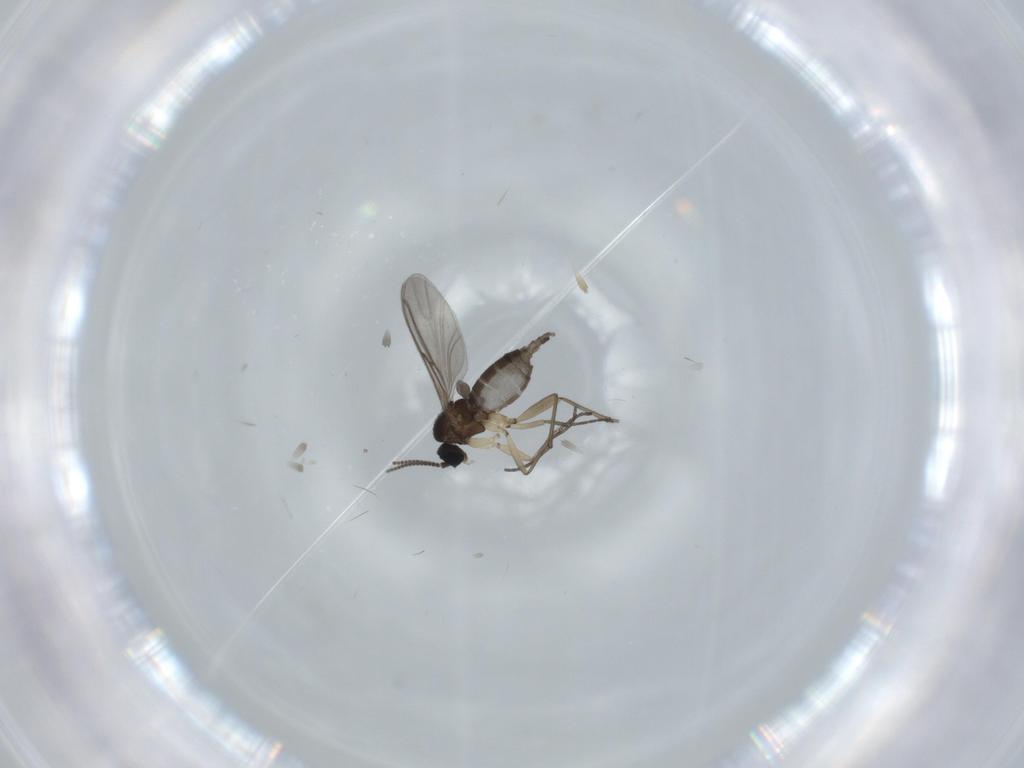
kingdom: Animalia
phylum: Arthropoda
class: Insecta
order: Diptera
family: Sciaridae
